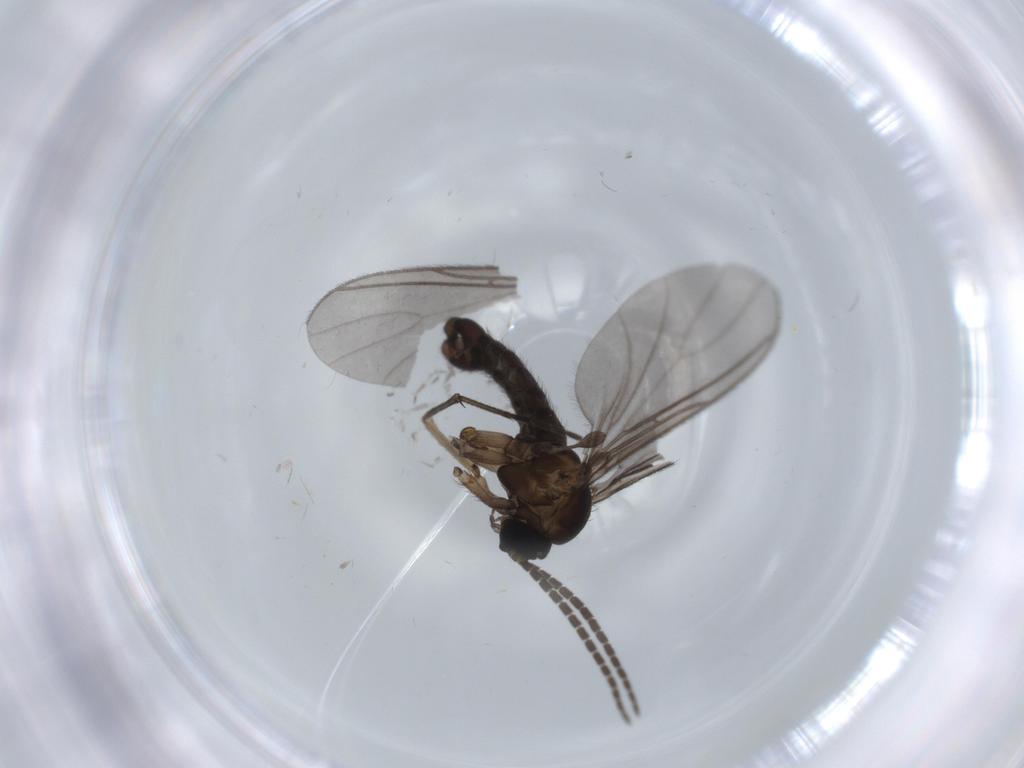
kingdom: Animalia
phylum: Arthropoda
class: Insecta
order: Diptera
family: Sciaridae
